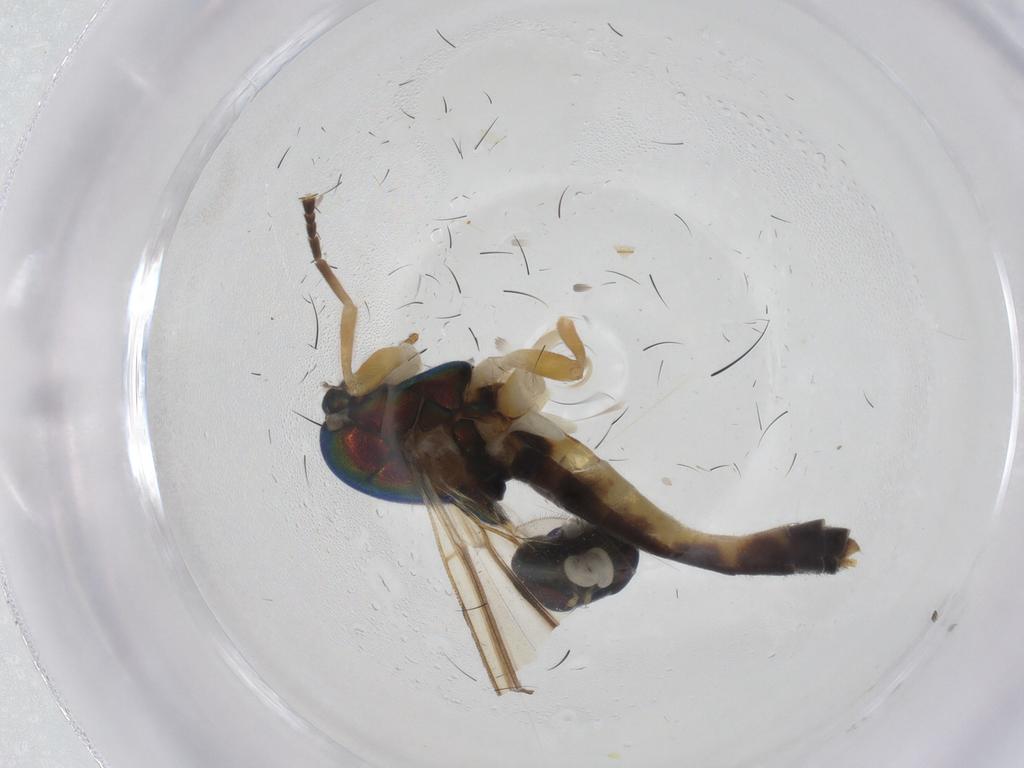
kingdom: Animalia
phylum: Arthropoda
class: Insecta
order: Diptera
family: Stratiomyidae
